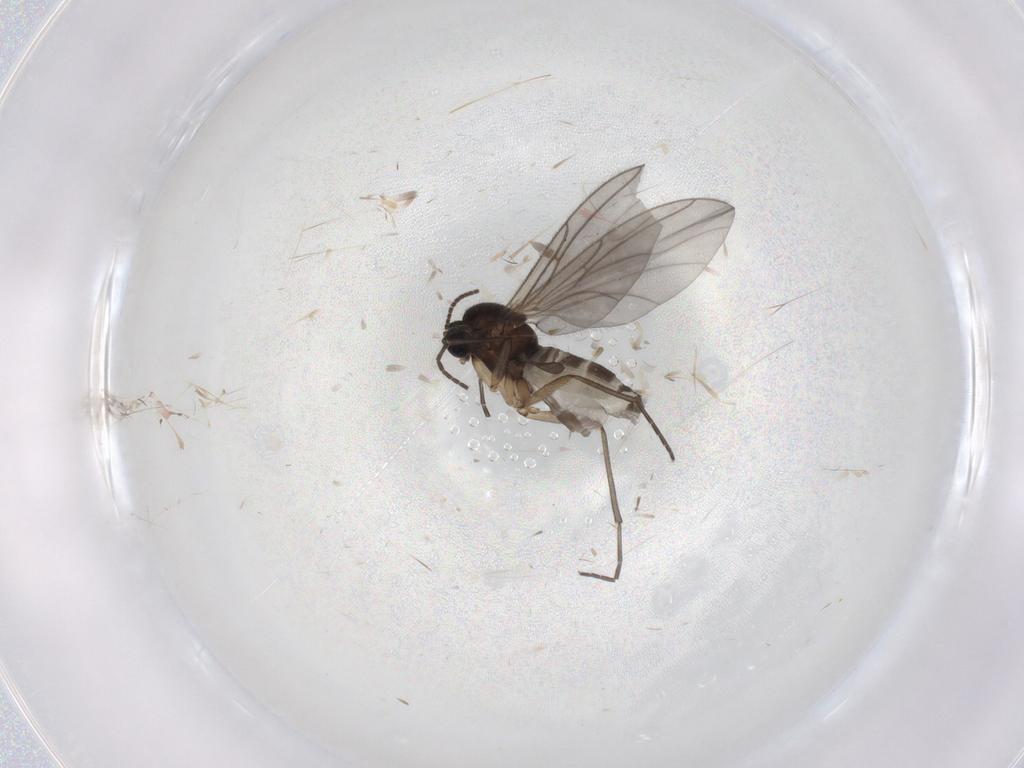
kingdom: Animalia
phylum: Arthropoda
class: Insecta
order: Diptera
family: Sciaridae
